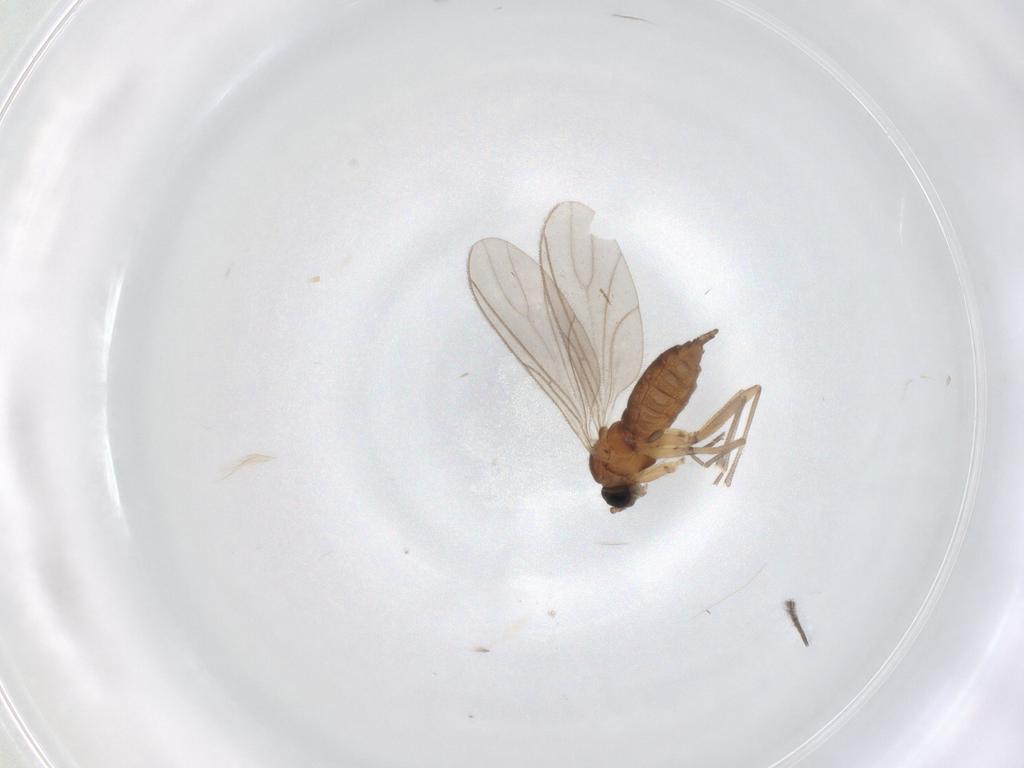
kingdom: Animalia
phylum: Arthropoda
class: Insecta
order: Diptera
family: Sciaridae
